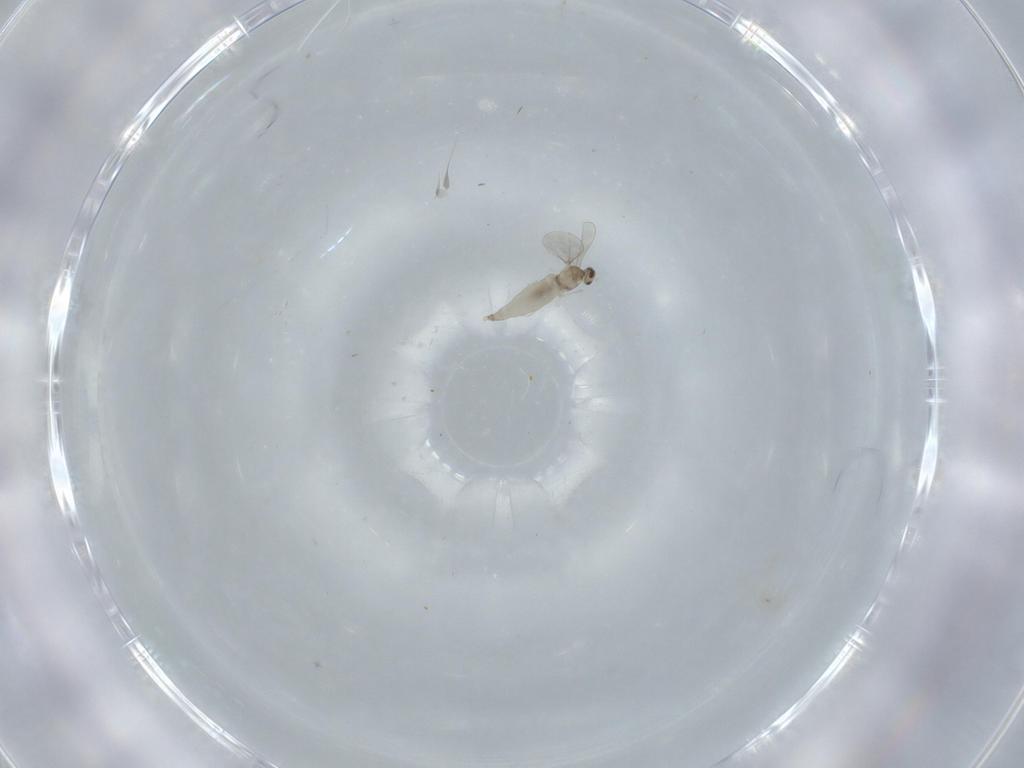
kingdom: Animalia
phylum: Arthropoda
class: Insecta
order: Diptera
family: Cecidomyiidae
